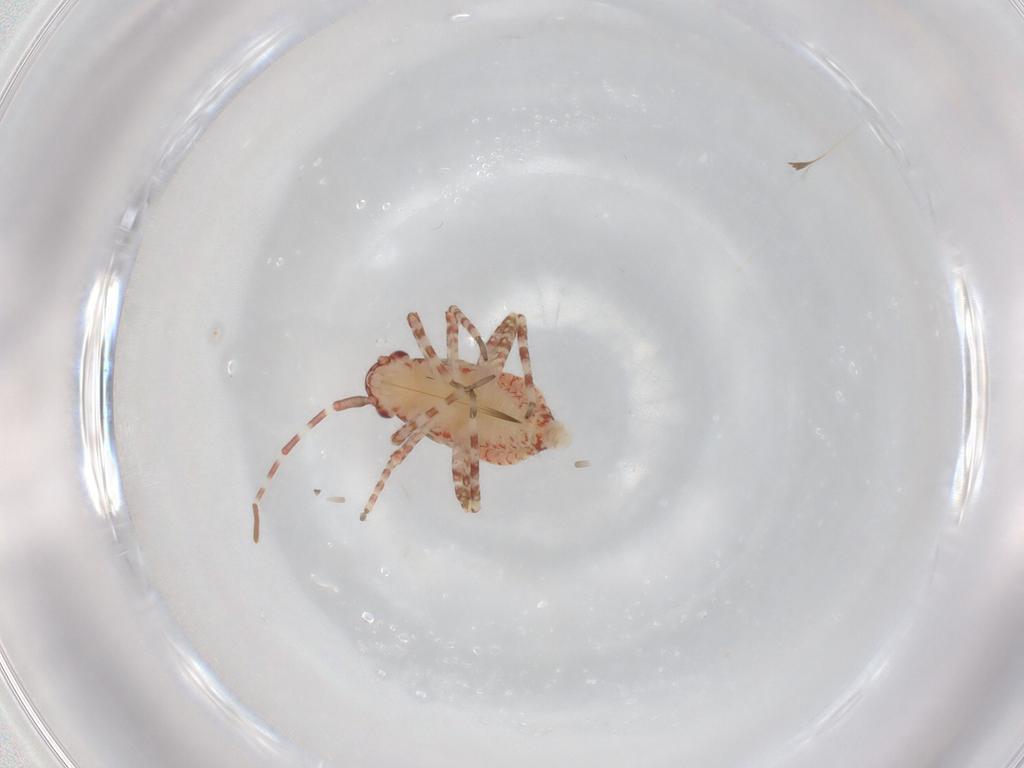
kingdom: Animalia
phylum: Arthropoda
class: Insecta
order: Hemiptera
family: Miridae
